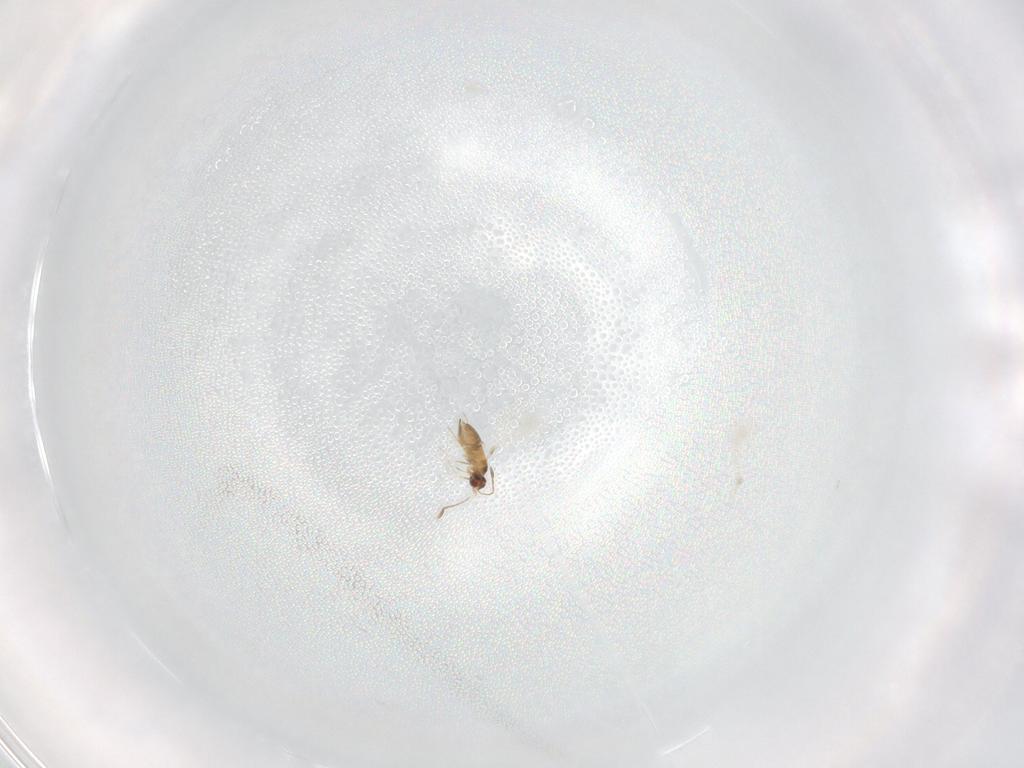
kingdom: Animalia
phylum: Arthropoda
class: Insecta
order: Hymenoptera
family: Mymaridae
